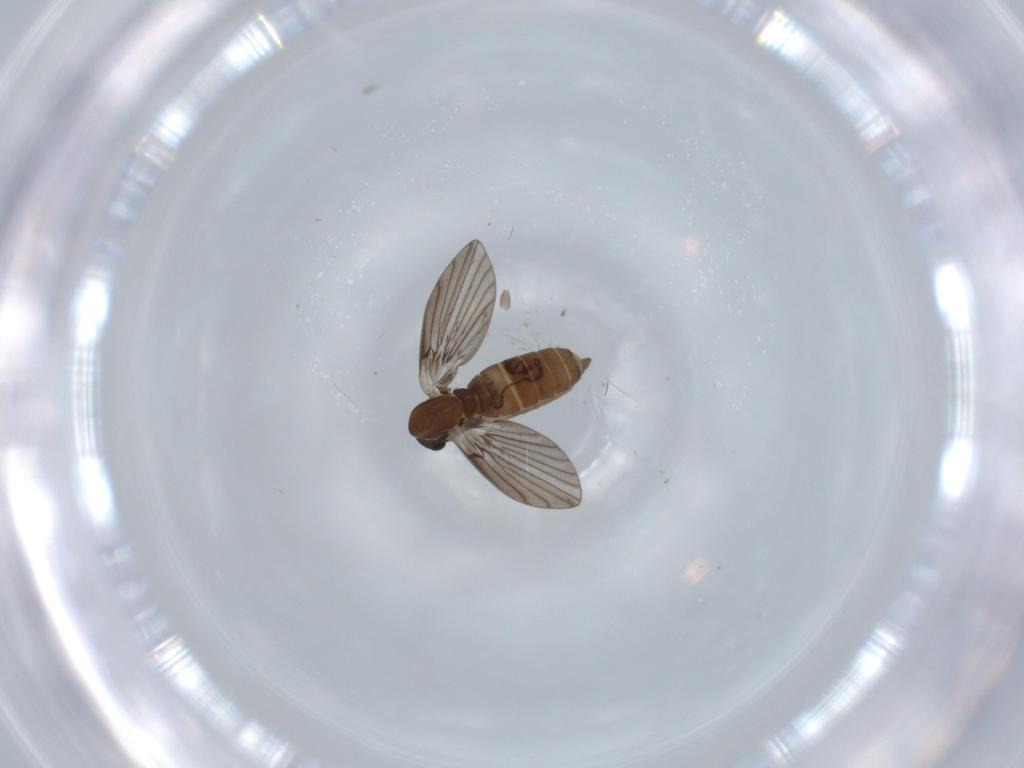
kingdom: Animalia
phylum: Arthropoda
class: Insecta
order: Diptera
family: Psychodidae
